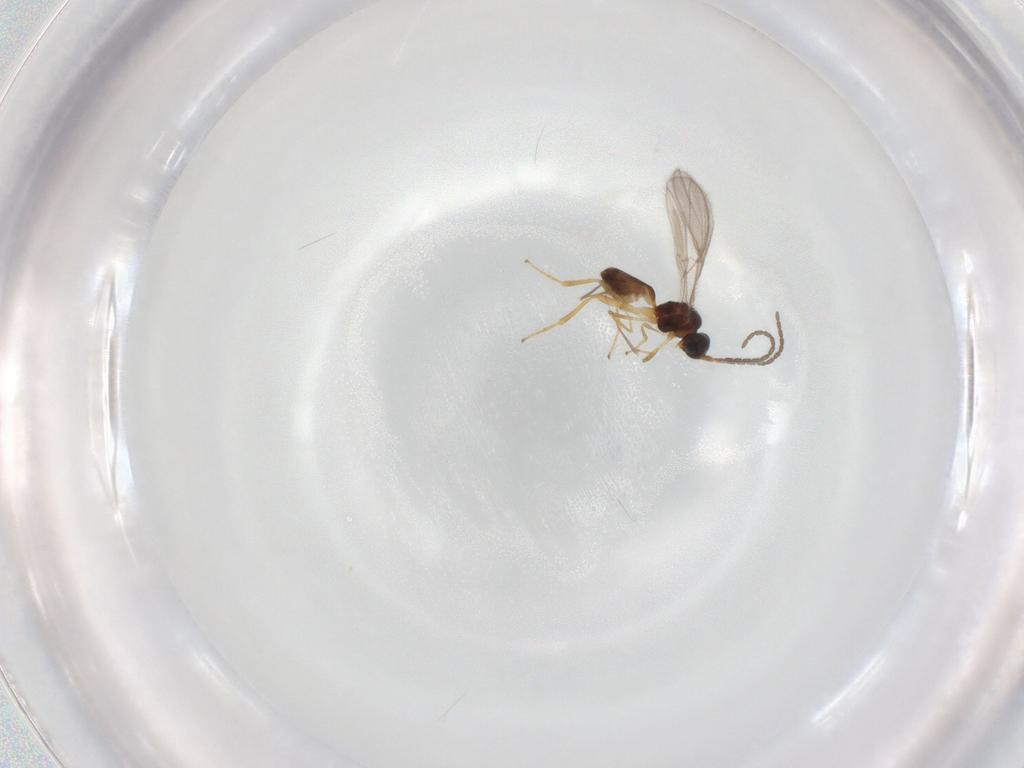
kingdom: Animalia
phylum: Arthropoda
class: Insecta
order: Hymenoptera
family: Braconidae
